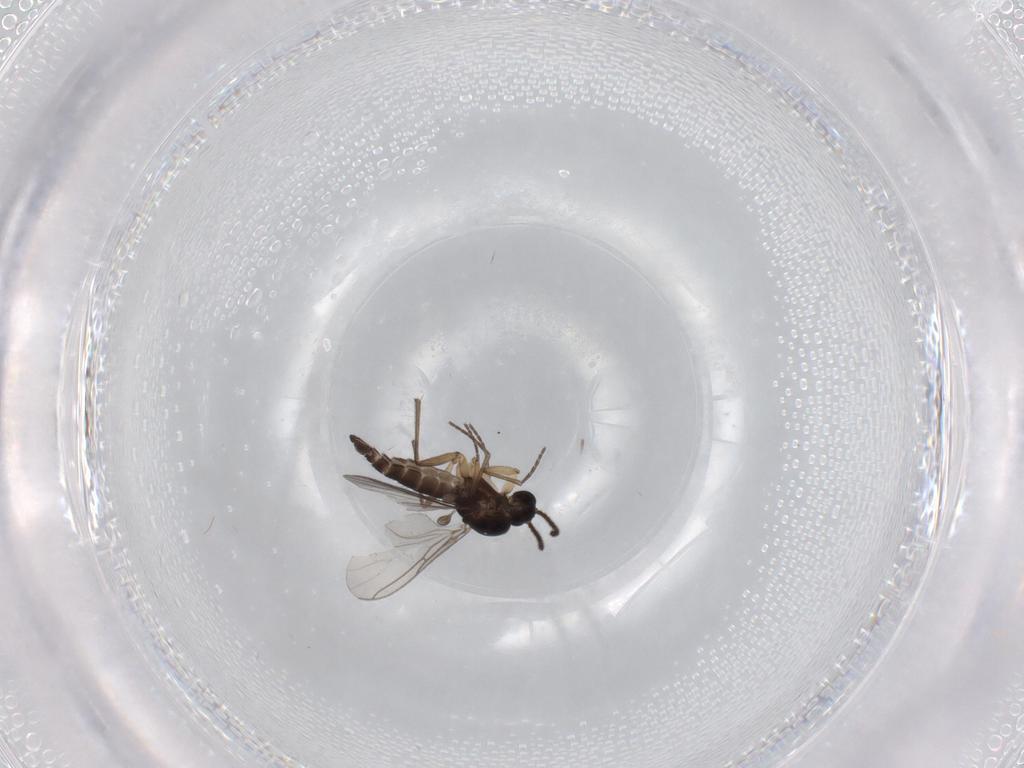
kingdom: Animalia
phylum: Arthropoda
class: Insecta
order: Diptera
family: Sciaridae
